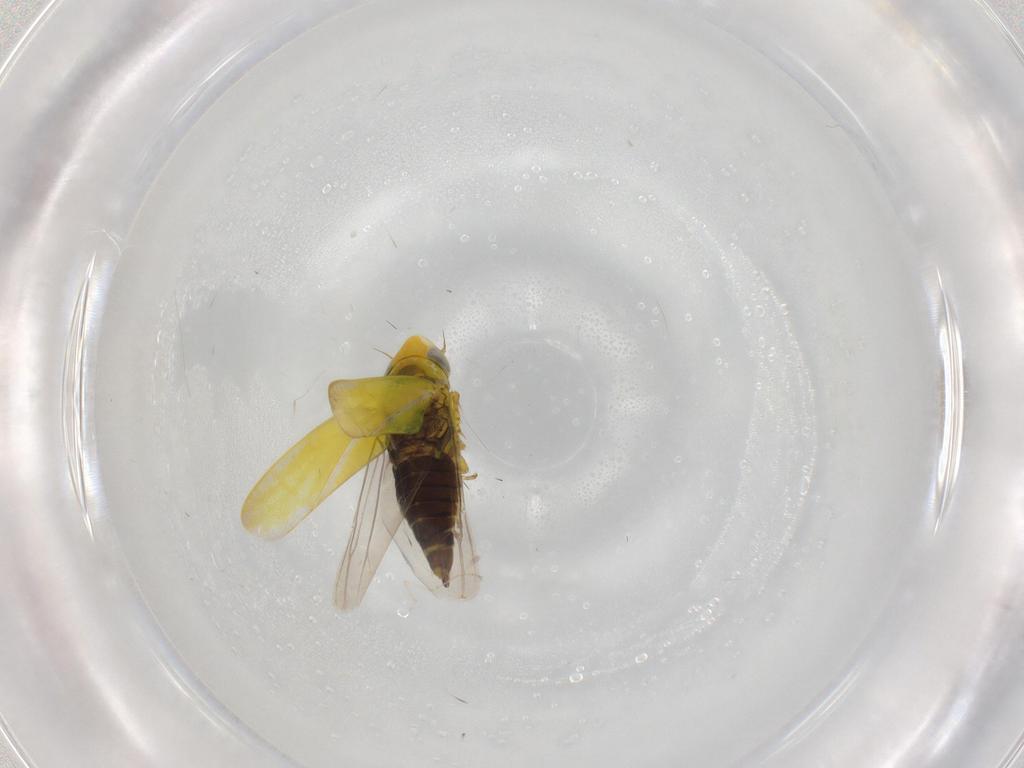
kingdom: Animalia
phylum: Arthropoda
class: Insecta
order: Hemiptera
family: Cicadellidae
